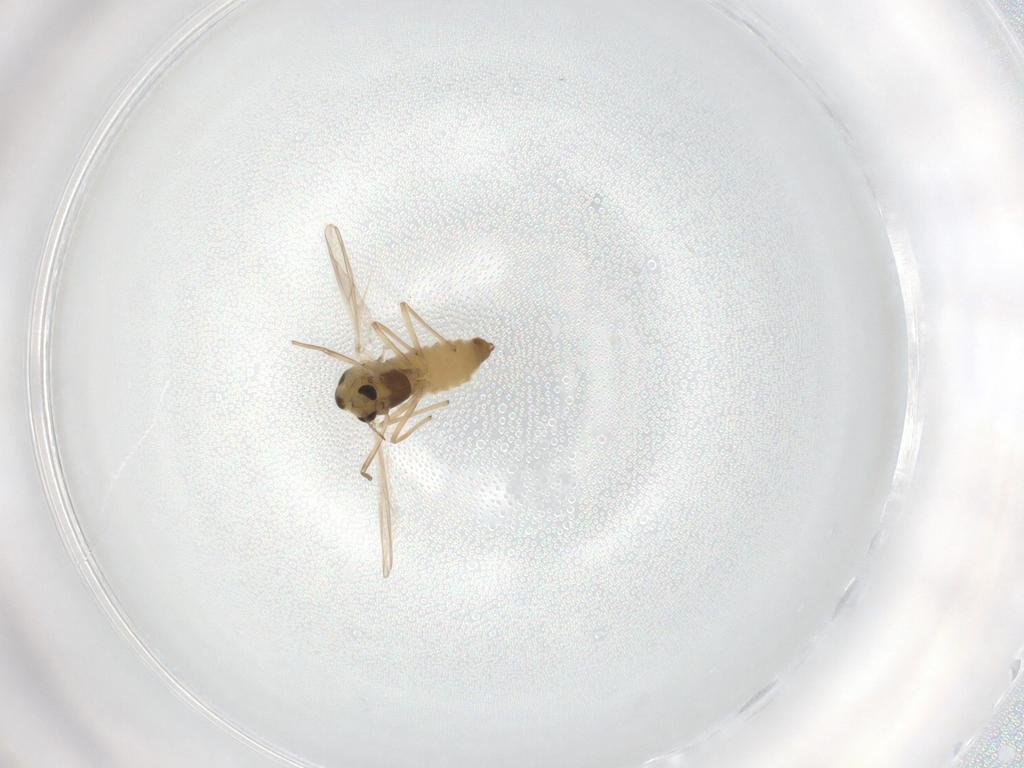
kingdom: Animalia
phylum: Arthropoda
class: Insecta
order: Diptera
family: Chironomidae
